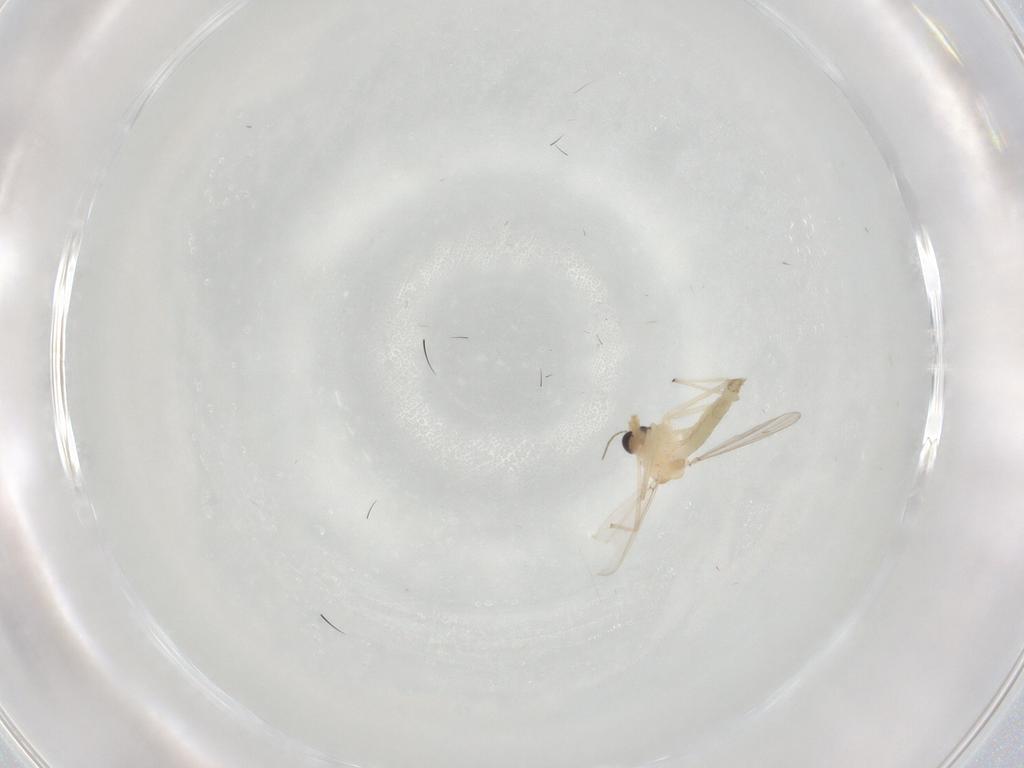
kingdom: Animalia
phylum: Arthropoda
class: Insecta
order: Diptera
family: Chironomidae
